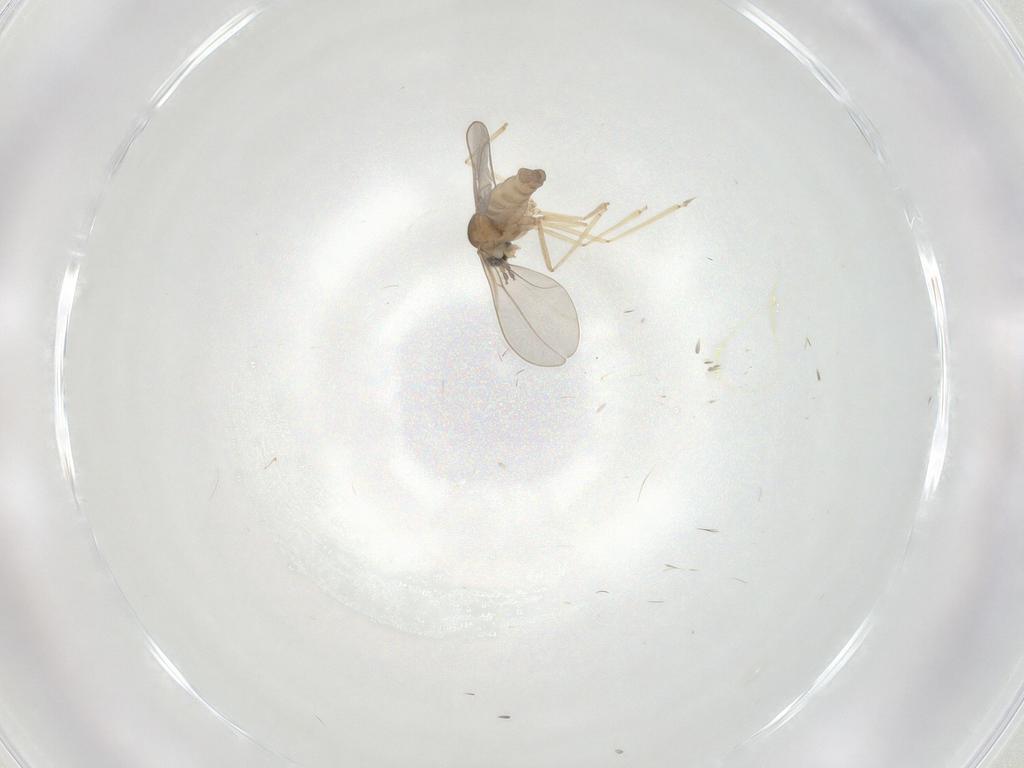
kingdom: Animalia
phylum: Arthropoda
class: Insecta
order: Diptera
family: Cecidomyiidae
